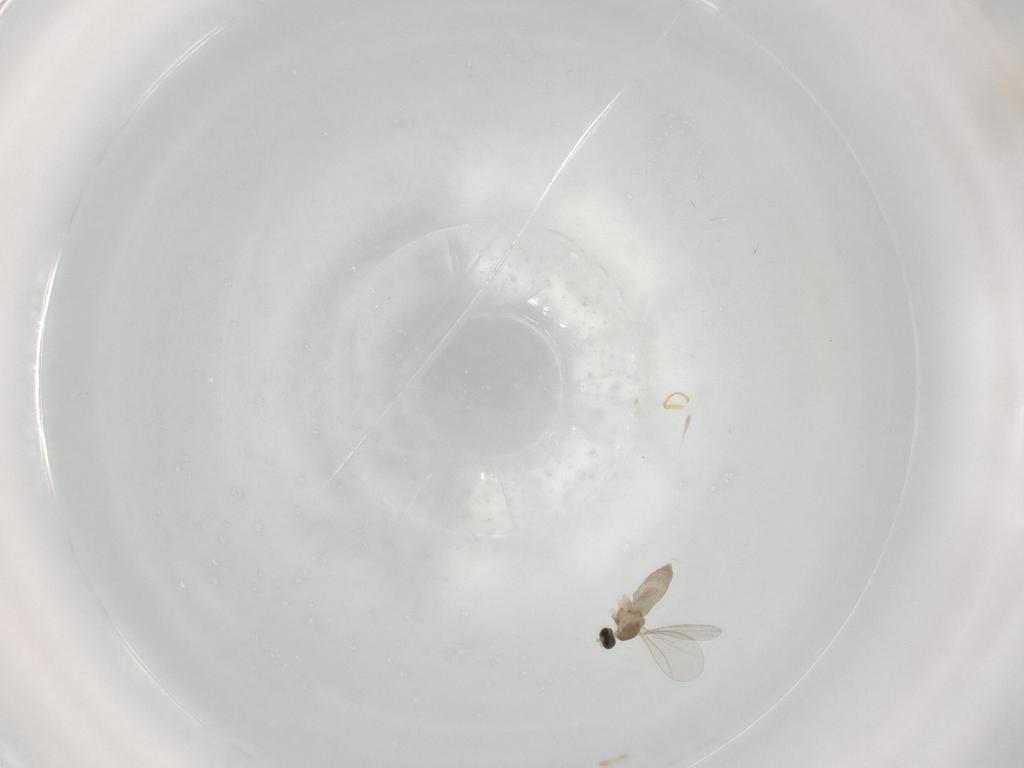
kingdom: Animalia
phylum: Arthropoda
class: Insecta
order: Diptera
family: Cecidomyiidae
